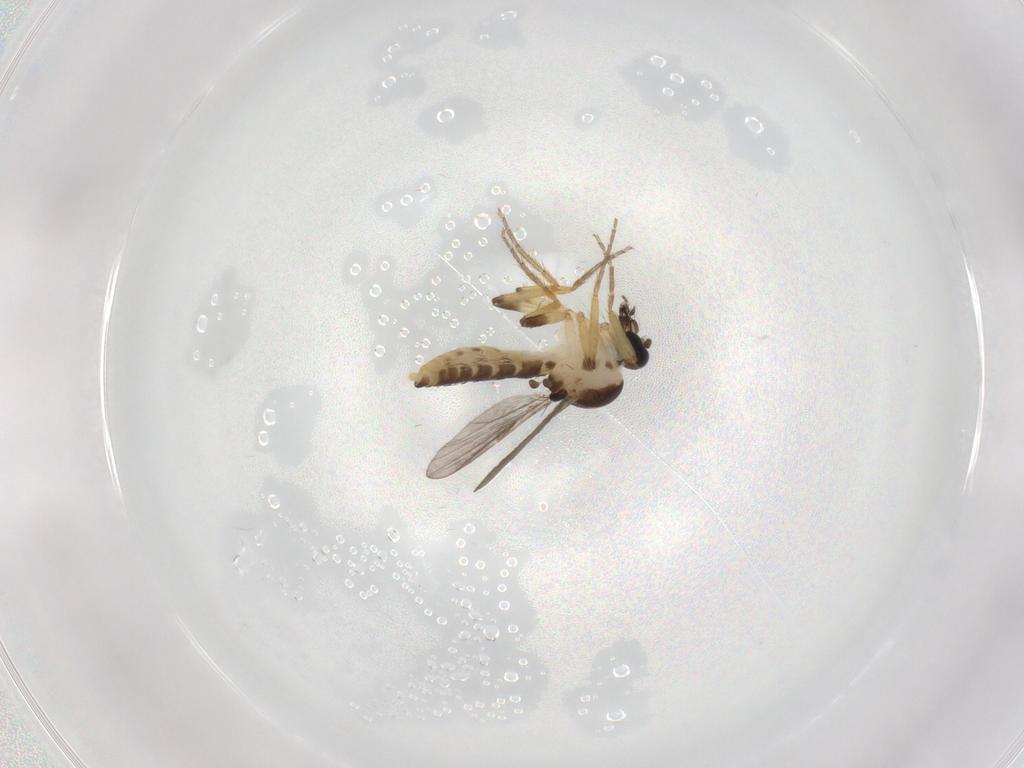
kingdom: Animalia
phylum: Arthropoda
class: Insecta
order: Diptera
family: Ceratopogonidae
